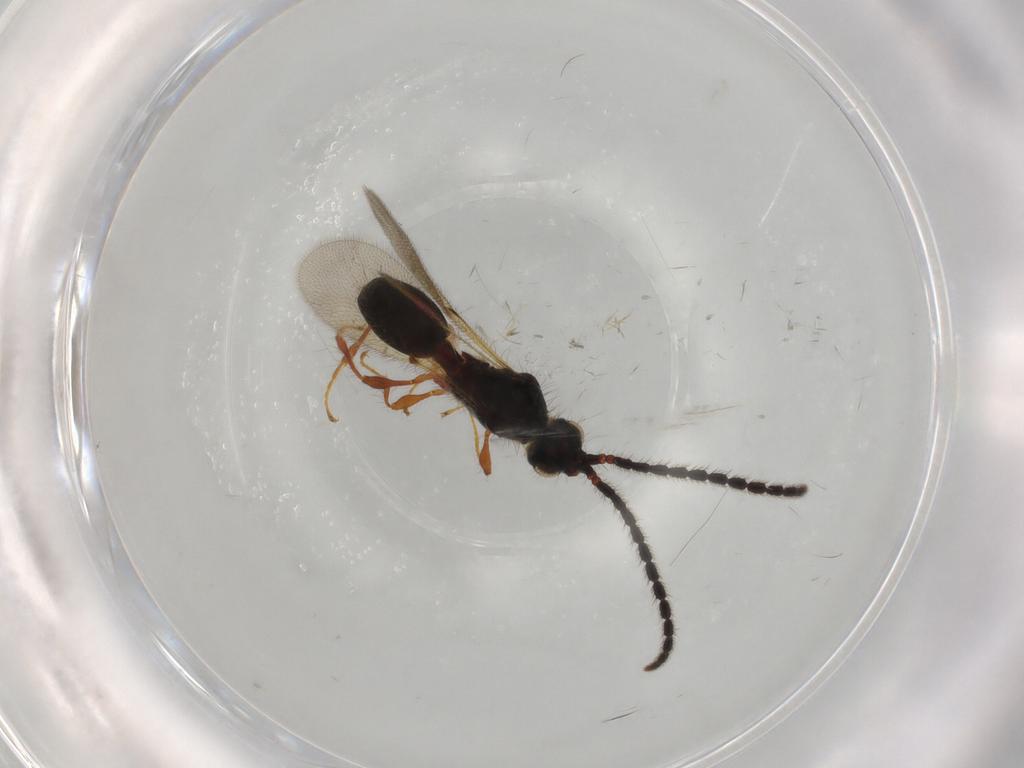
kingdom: Animalia
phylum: Arthropoda
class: Insecta
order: Hymenoptera
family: Diapriidae
